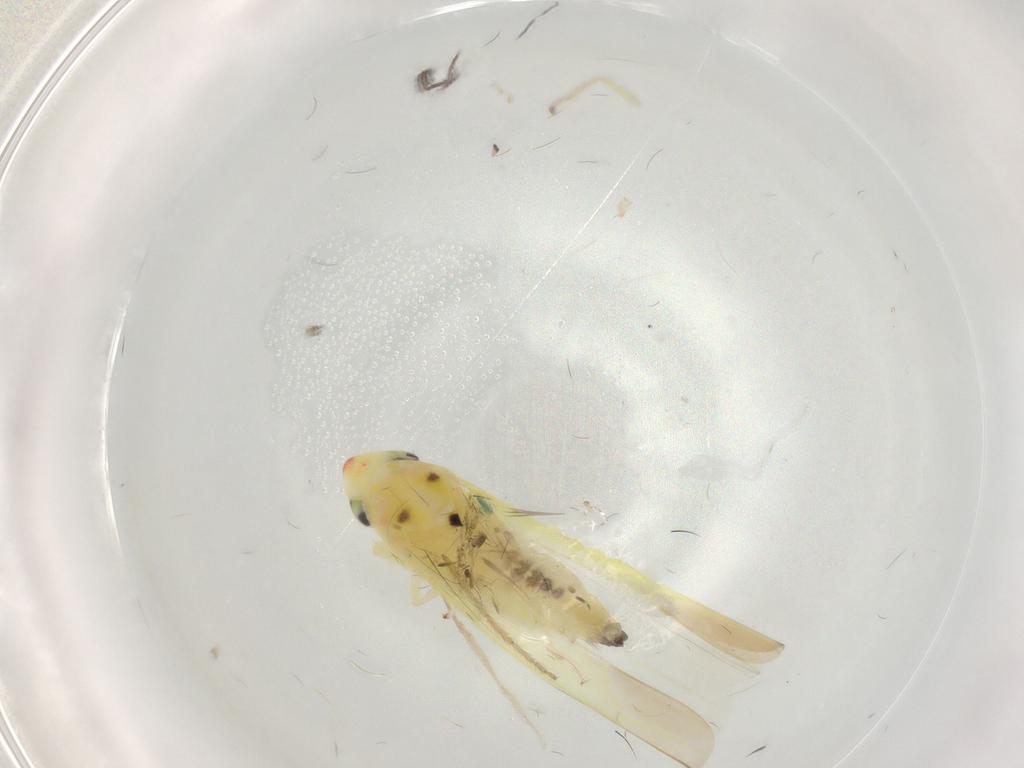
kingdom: Animalia
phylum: Arthropoda
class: Insecta
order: Hemiptera
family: Cicadellidae
